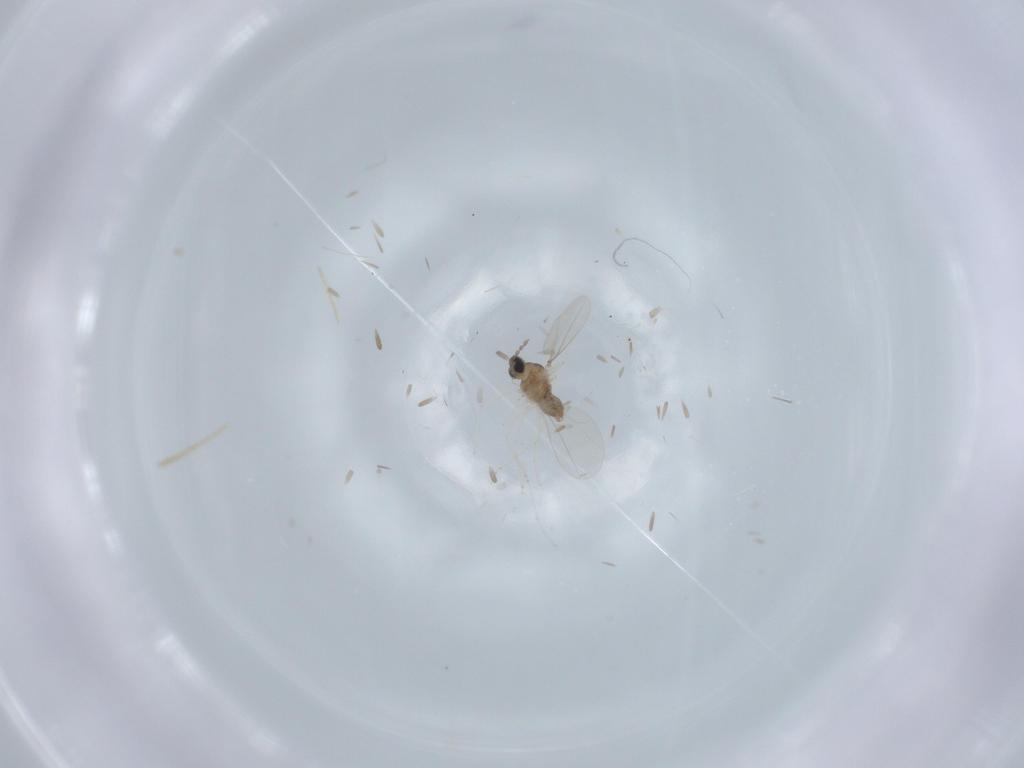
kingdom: Animalia
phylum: Arthropoda
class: Insecta
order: Diptera
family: Cecidomyiidae
